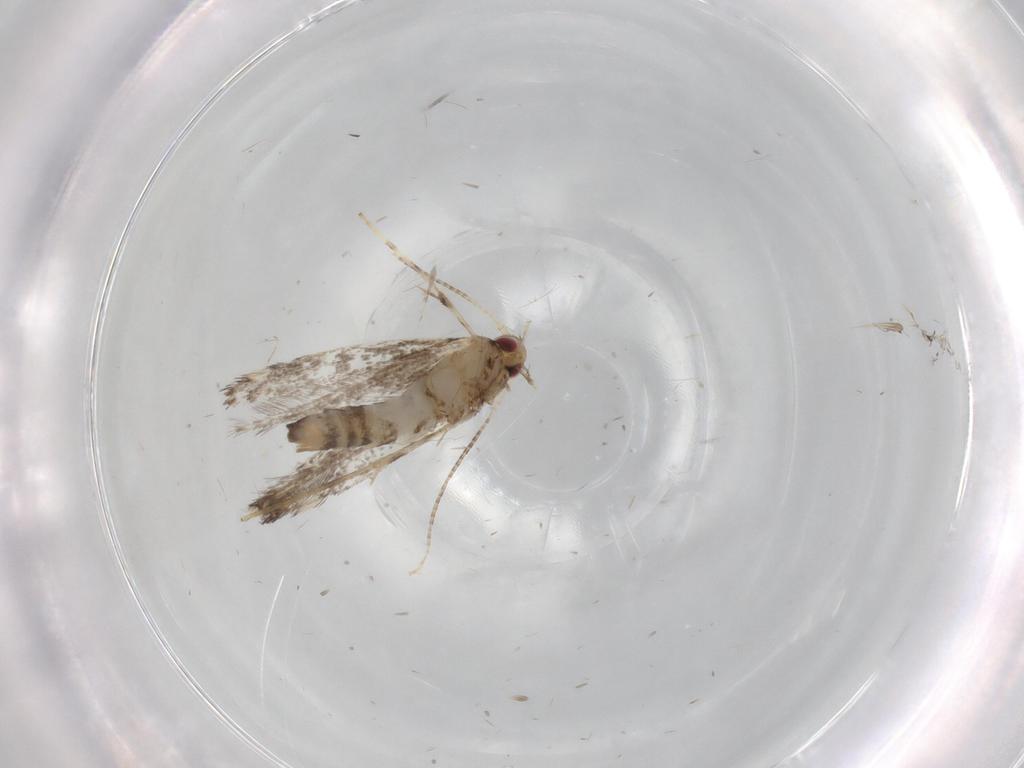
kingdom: Animalia
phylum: Arthropoda
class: Insecta
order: Lepidoptera
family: Gracillariidae
